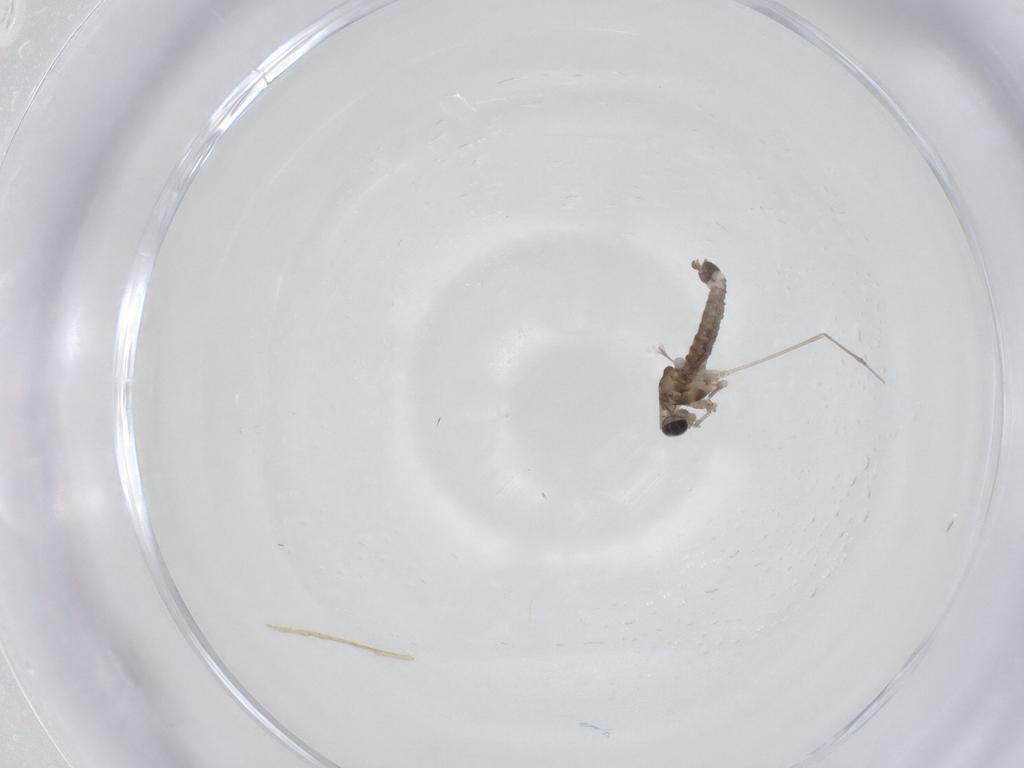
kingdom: Animalia
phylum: Arthropoda
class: Insecta
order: Diptera
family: Cecidomyiidae
